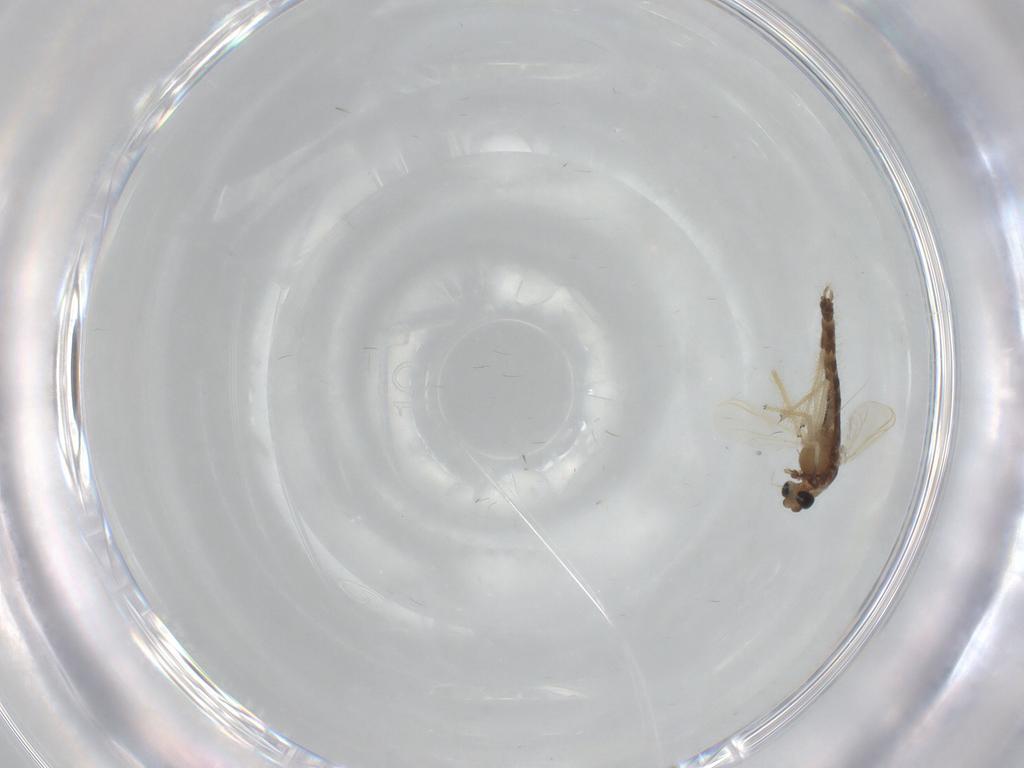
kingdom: Animalia
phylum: Arthropoda
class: Insecta
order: Diptera
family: Ceratopogonidae
